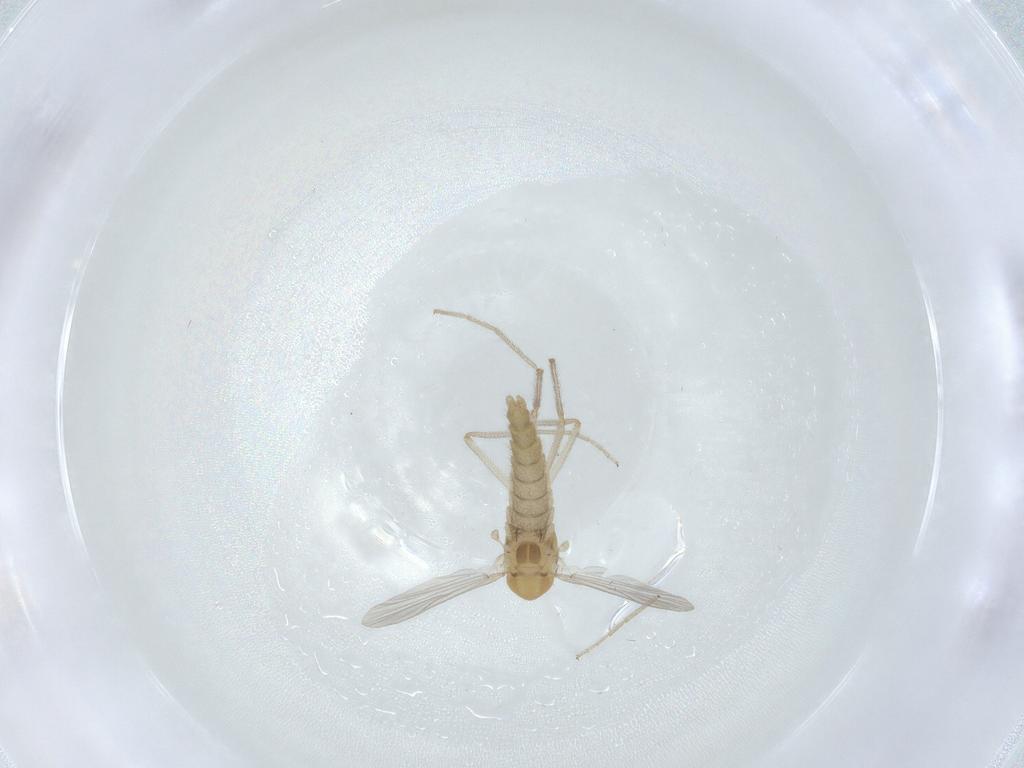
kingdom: Animalia
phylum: Arthropoda
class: Insecta
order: Diptera
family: Chironomidae
